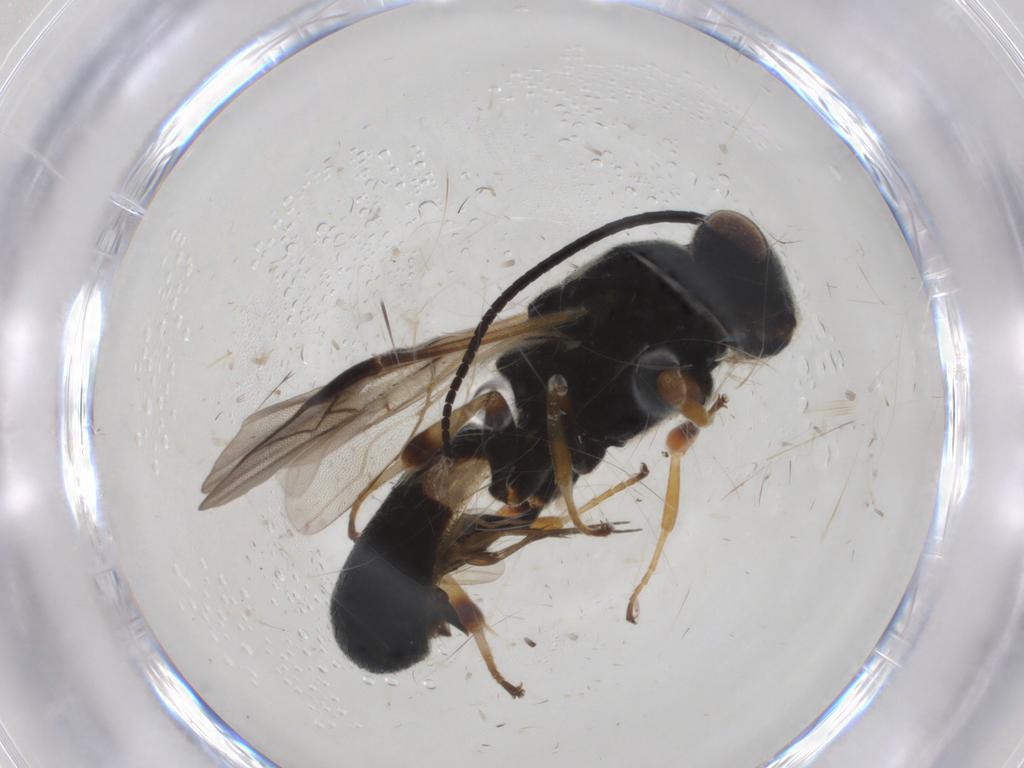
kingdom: Animalia
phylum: Arthropoda
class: Insecta
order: Hymenoptera
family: Braconidae
